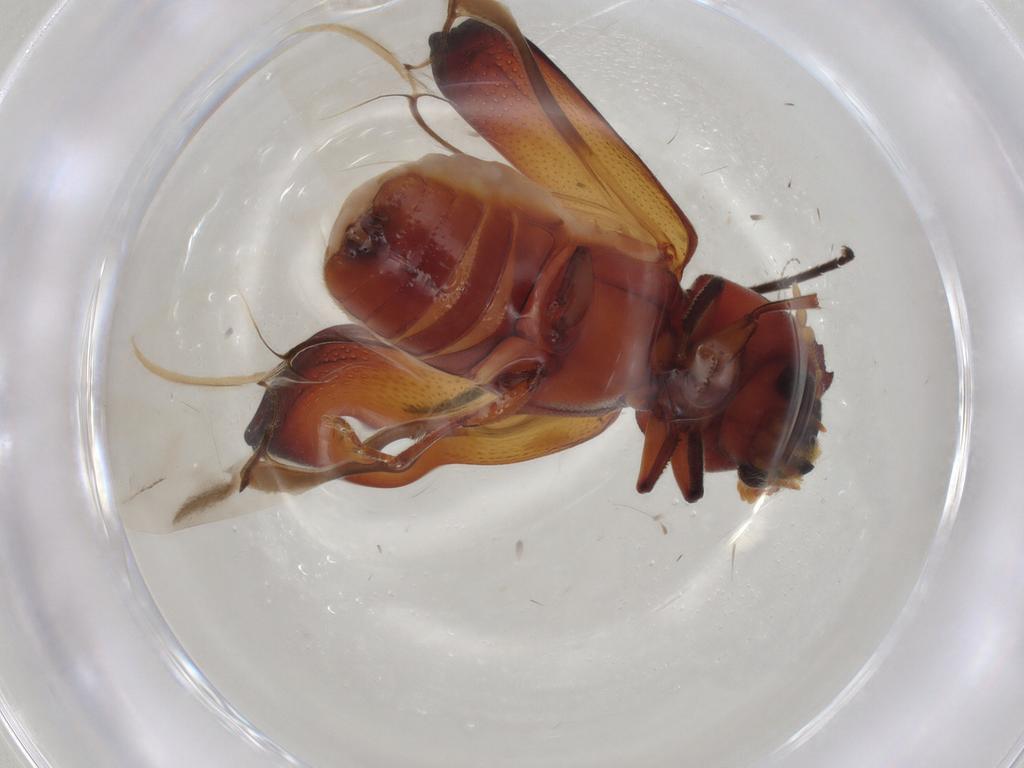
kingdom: Animalia
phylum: Arthropoda
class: Insecta
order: Coleoptera
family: Bostrichidae
